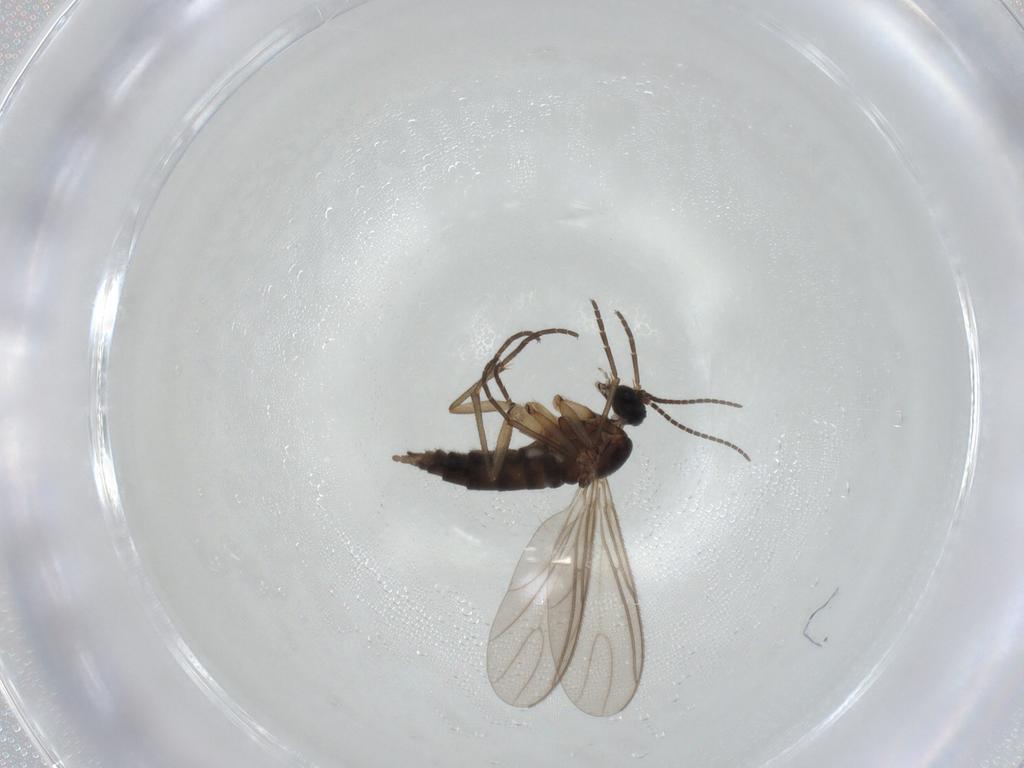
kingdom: Animalia
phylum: Arthropoda
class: Insecta
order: Diptera
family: Sciaridae
